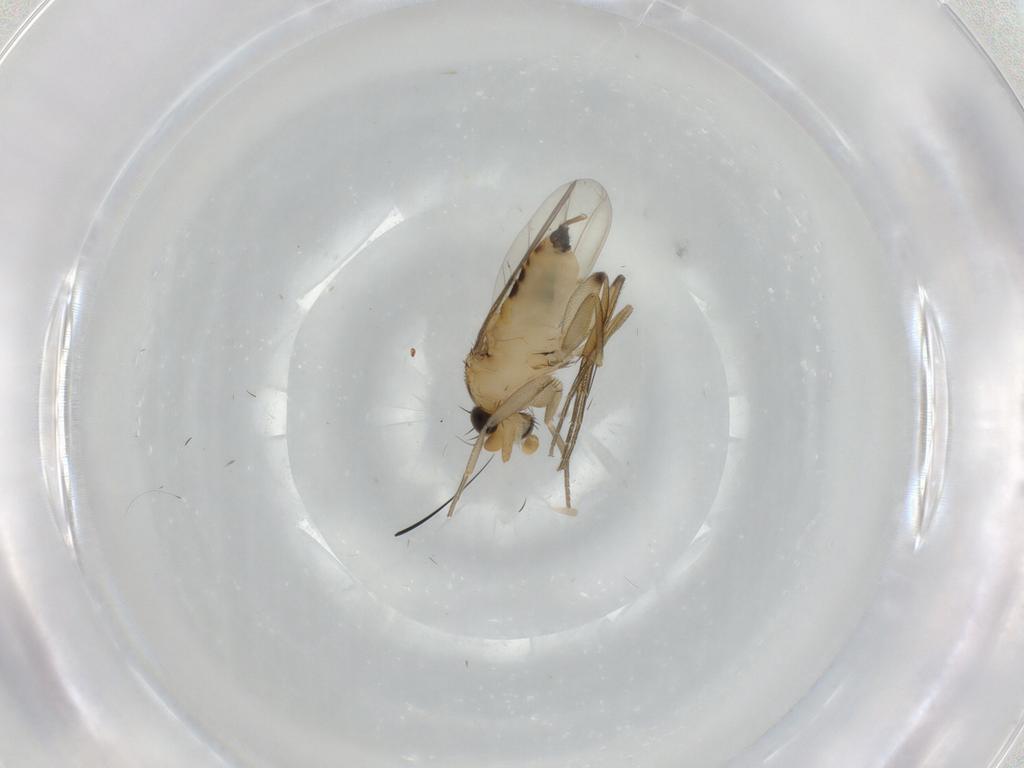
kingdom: Animalia
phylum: Arthropoda
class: Insecta
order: Diptera
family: Phoridae
